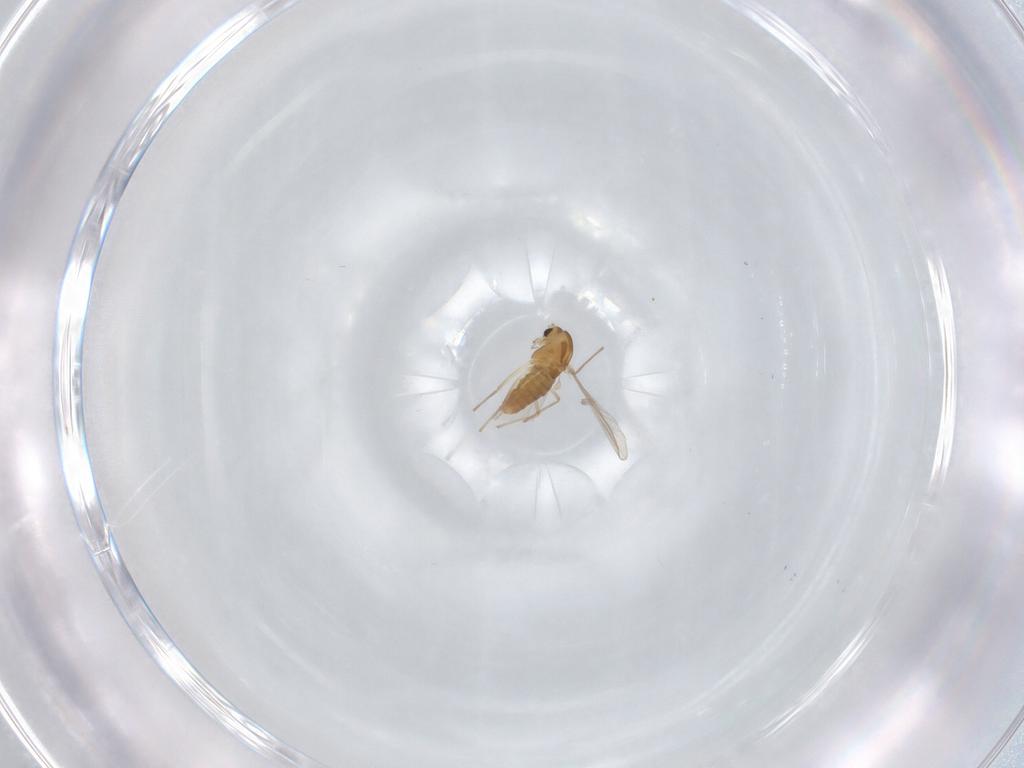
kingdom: Animalia
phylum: Arthropoda
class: Insecta
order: Diptera
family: Chironomidae
